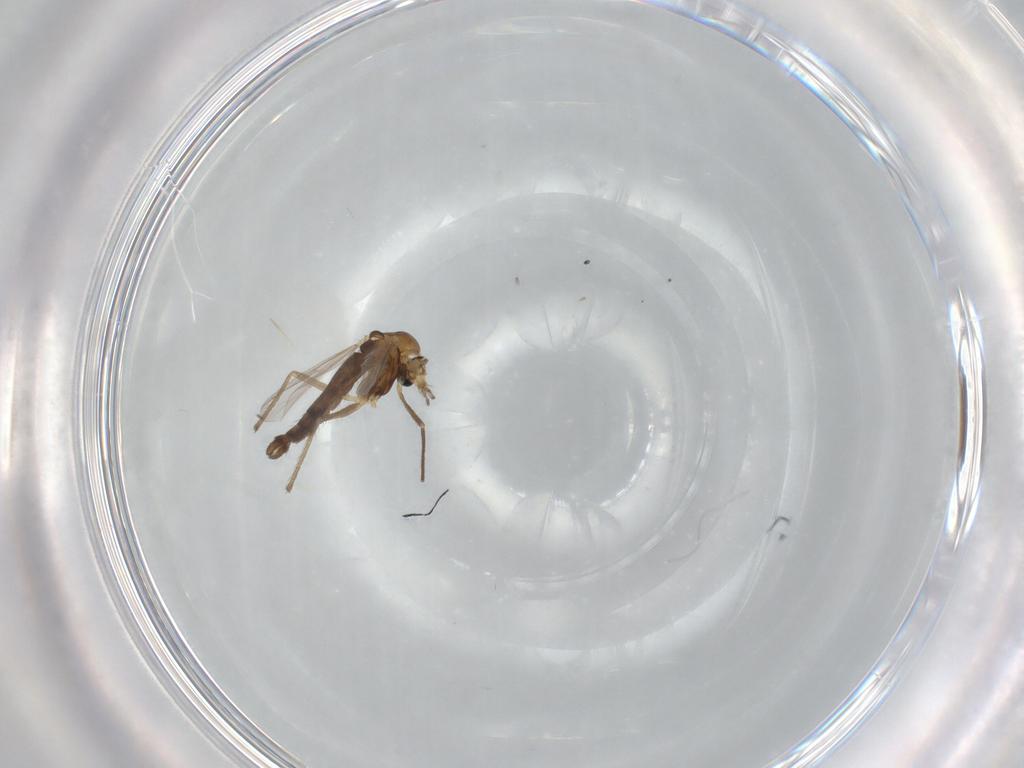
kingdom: Animalia
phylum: Arthropoda
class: Insecta
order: Diptera
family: Chironomidae
